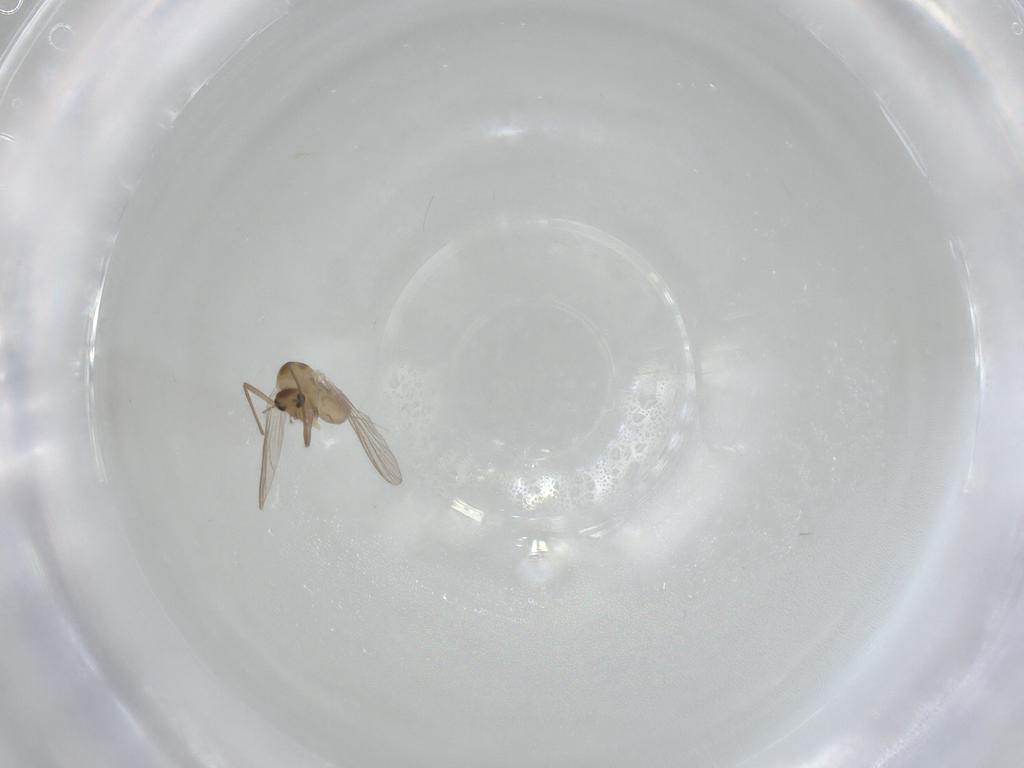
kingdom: Animalia
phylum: Arthropoda
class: Insecta
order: Diptera
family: Chironomidae
